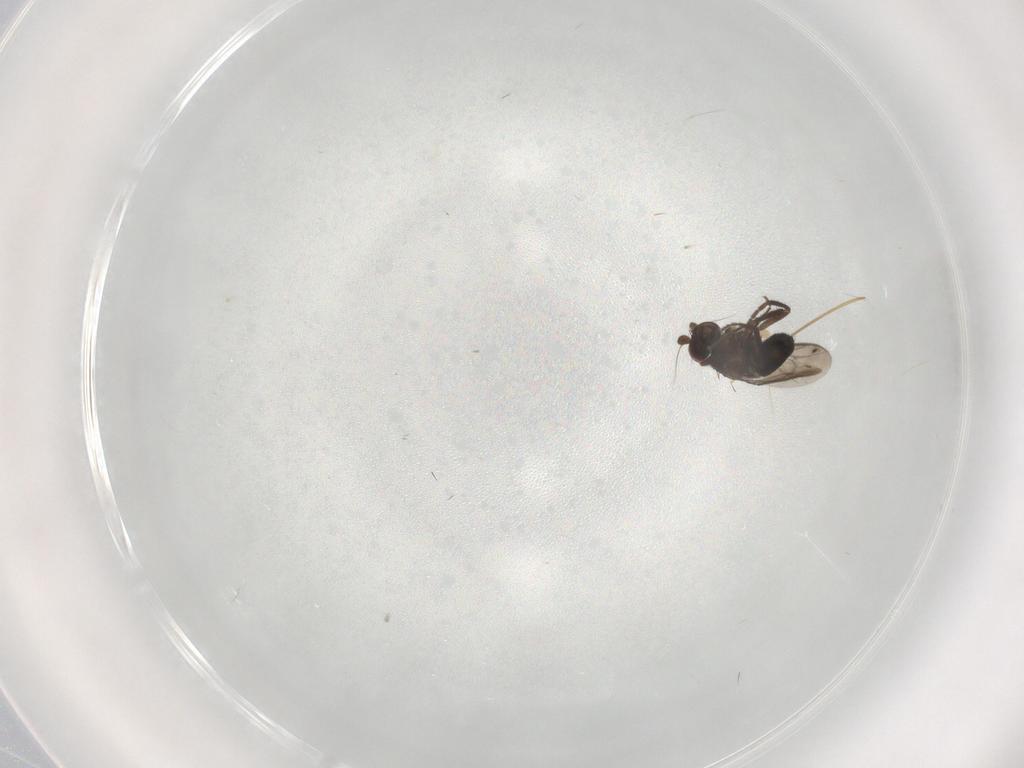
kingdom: Animalia
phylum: Arthropoda
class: Insecta
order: Diptera
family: Sphaeroceridae
